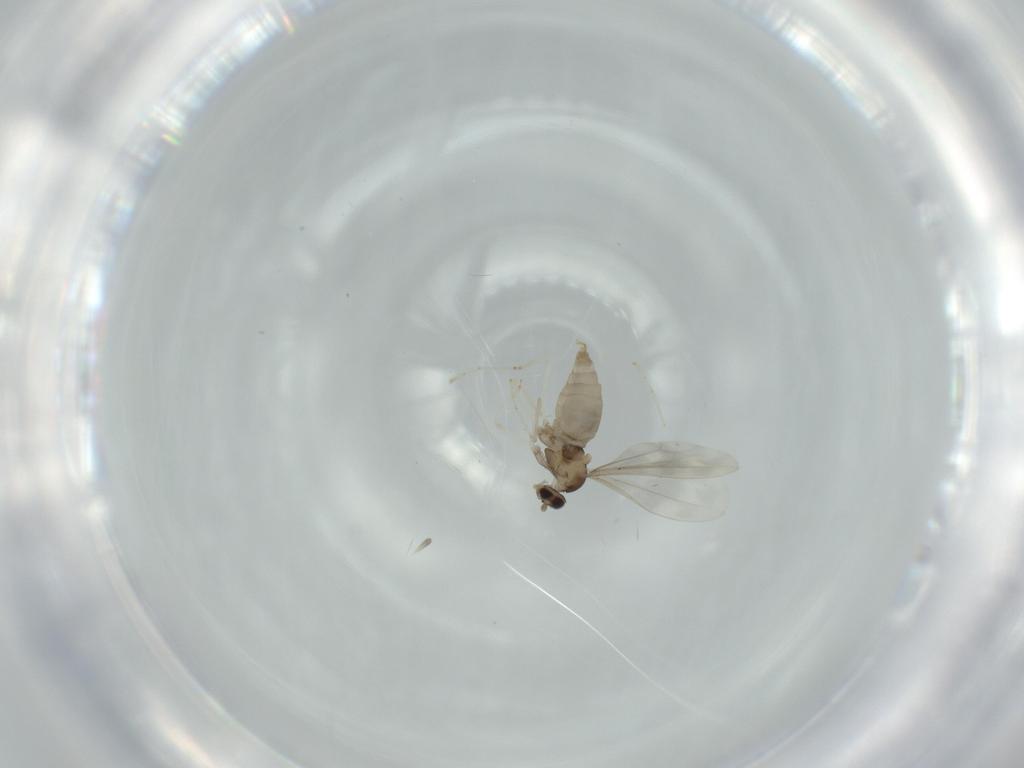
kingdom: Animalia
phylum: Arthropoda
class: Insecta
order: Diptera
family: Cecidomyiidae
